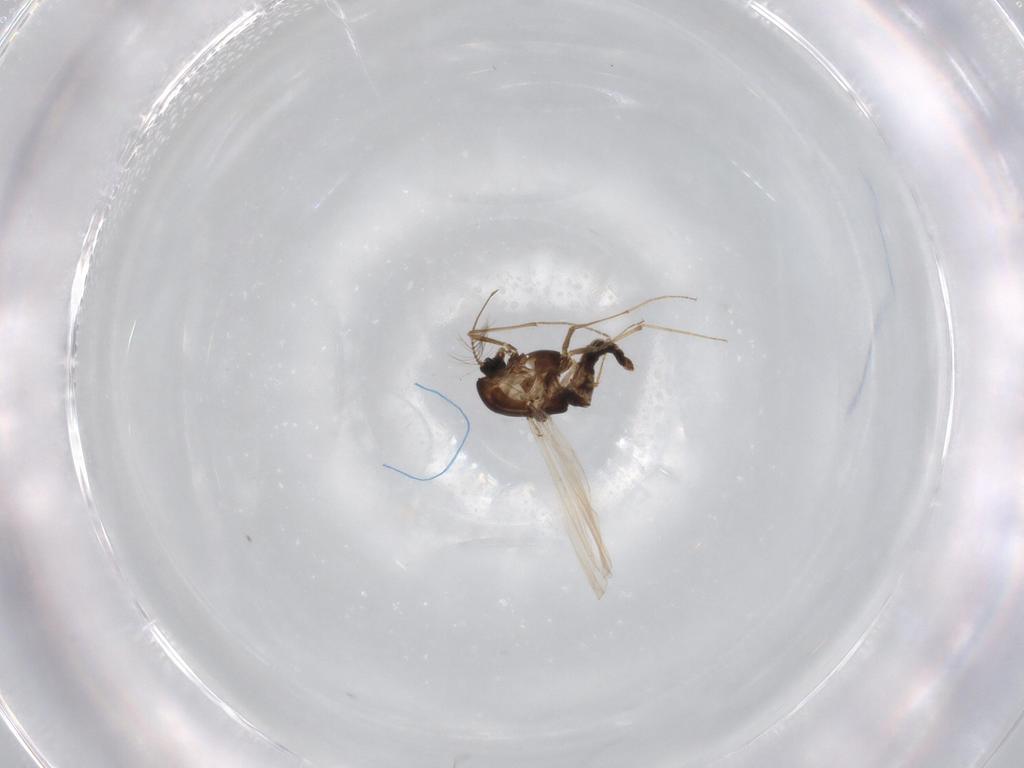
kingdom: Animalia
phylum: Arthropoda
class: Insecta
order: Diptera
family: Chironomidae
